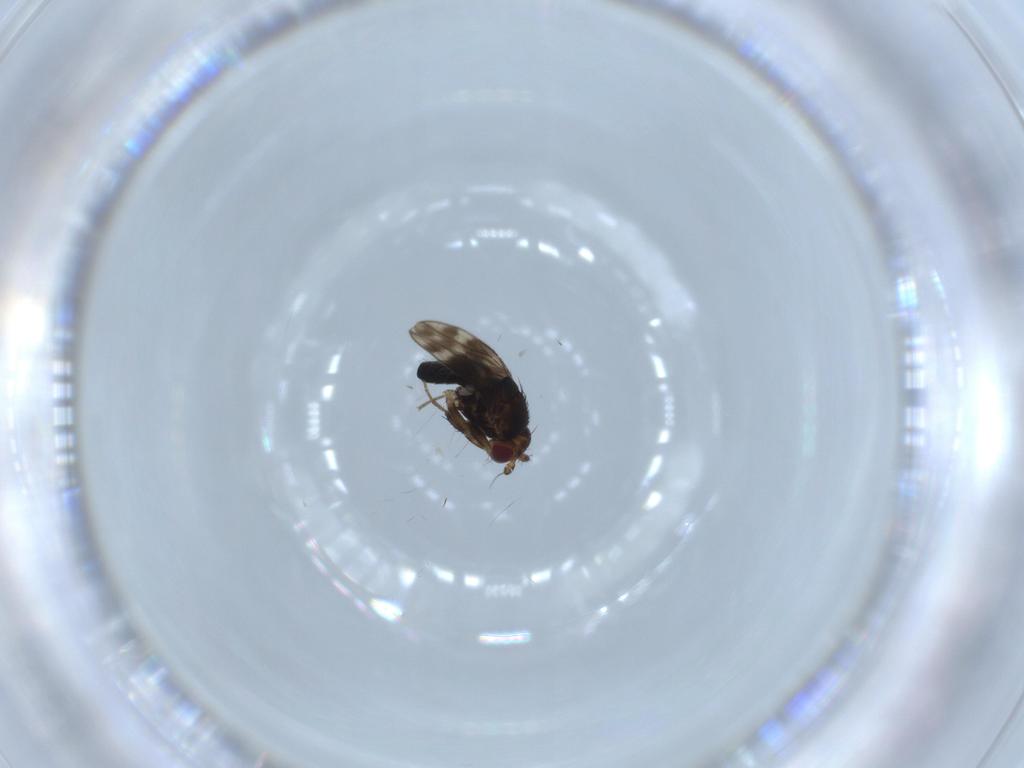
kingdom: Animalia
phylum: Arthropoda
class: Insecta
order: Diptera
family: Sphaeroceridae
